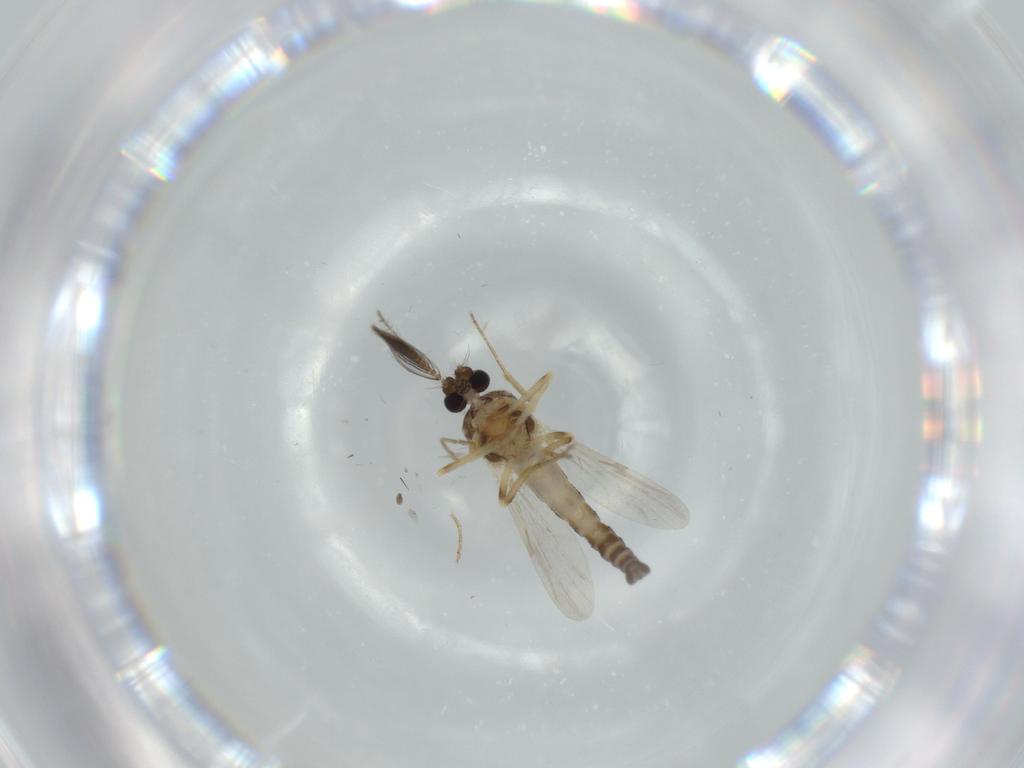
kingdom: Animalia
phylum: Arthropoda
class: Insecta
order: Diptera
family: Ceratopogonidae
